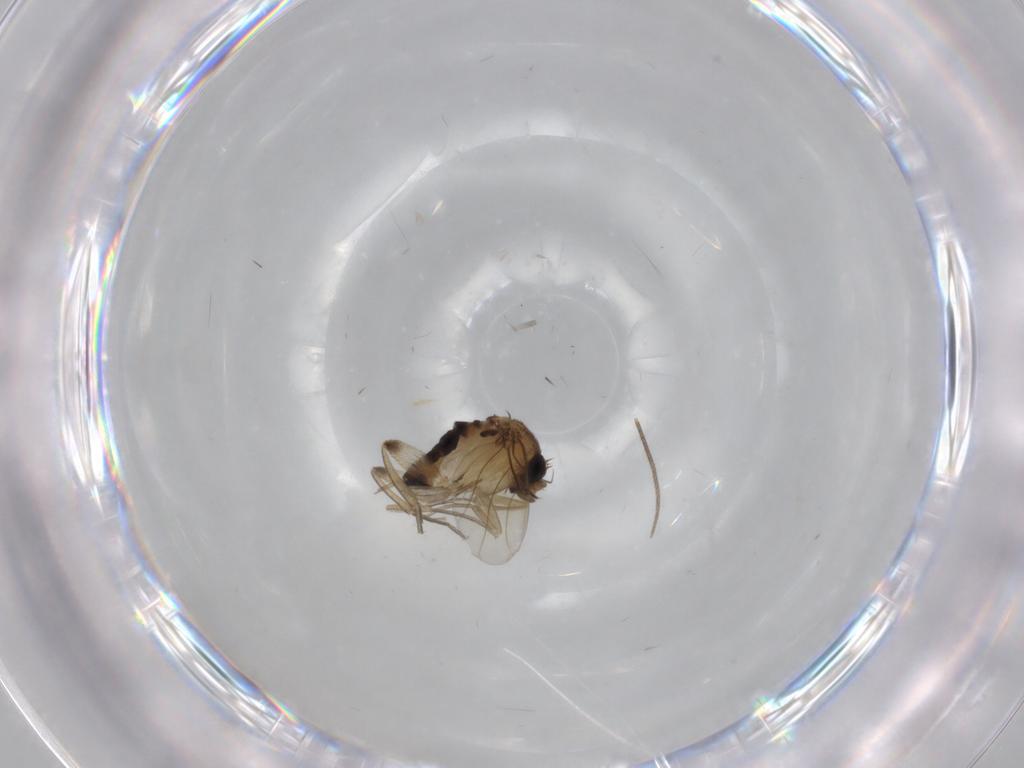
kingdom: Animalia
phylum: Arthropoda
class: Insecta
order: Diptera
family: Phoridae
